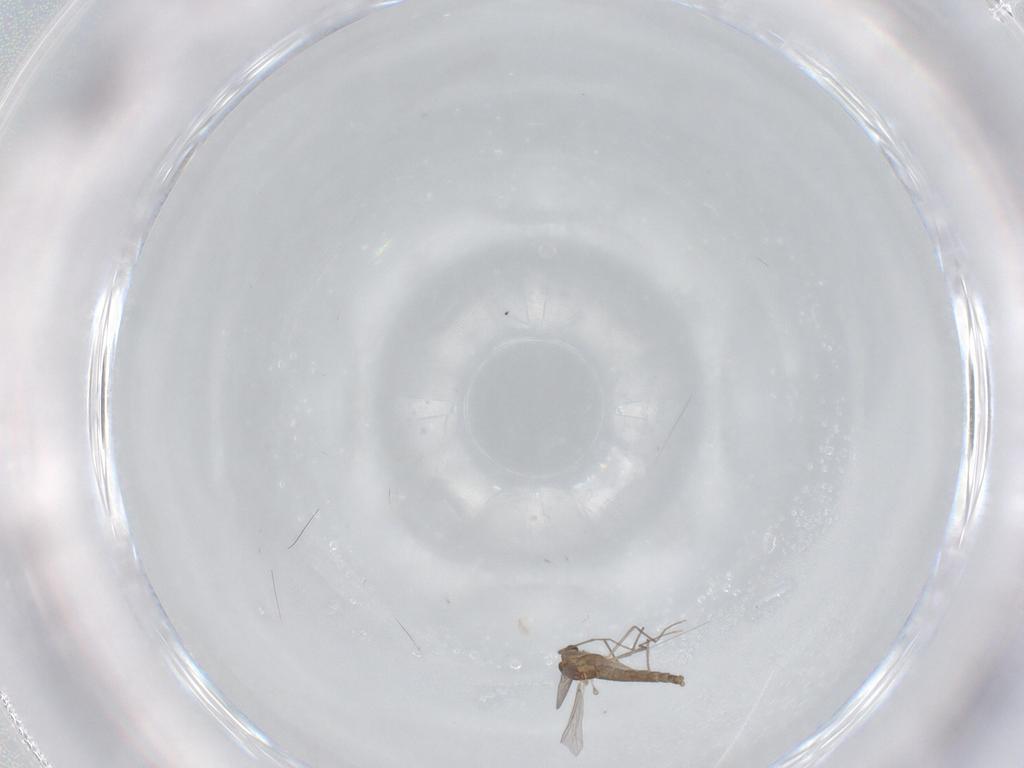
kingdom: Animalia
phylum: Arthropoda
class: Insecta
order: Diptera
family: Chironomidae
